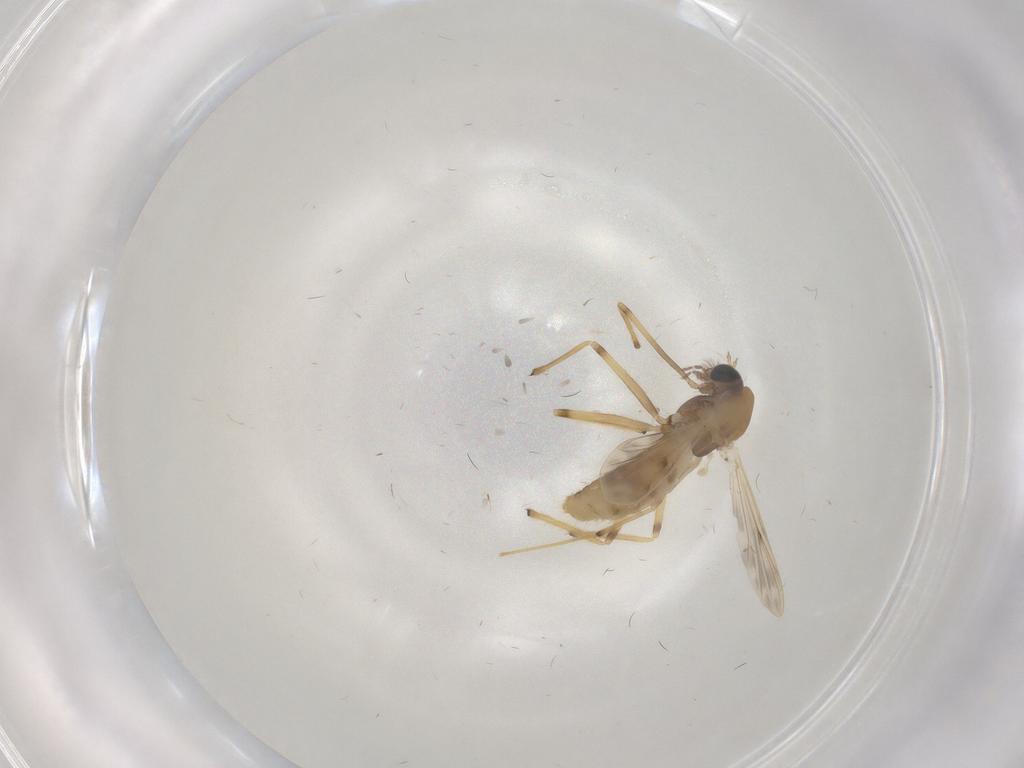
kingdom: Animalia
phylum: Arthropoda
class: Insecta
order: Diptera
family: Chironomidae
